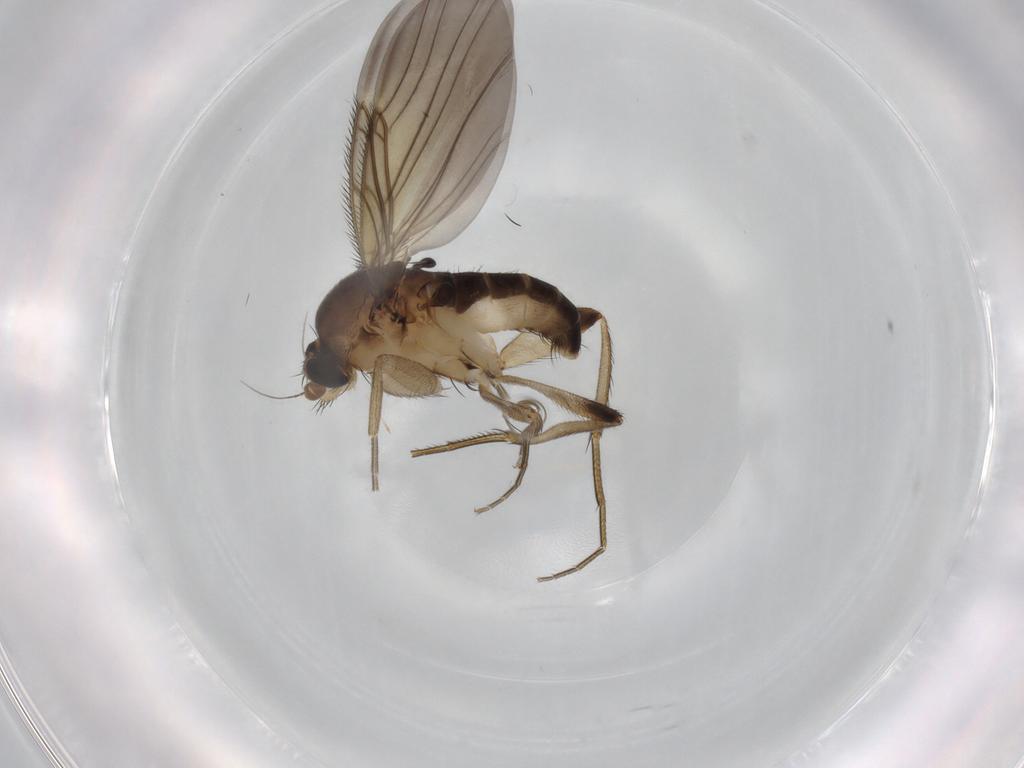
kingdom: Animalia
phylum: Arthropoda
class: Insecta
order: Diptera
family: Phoridae
